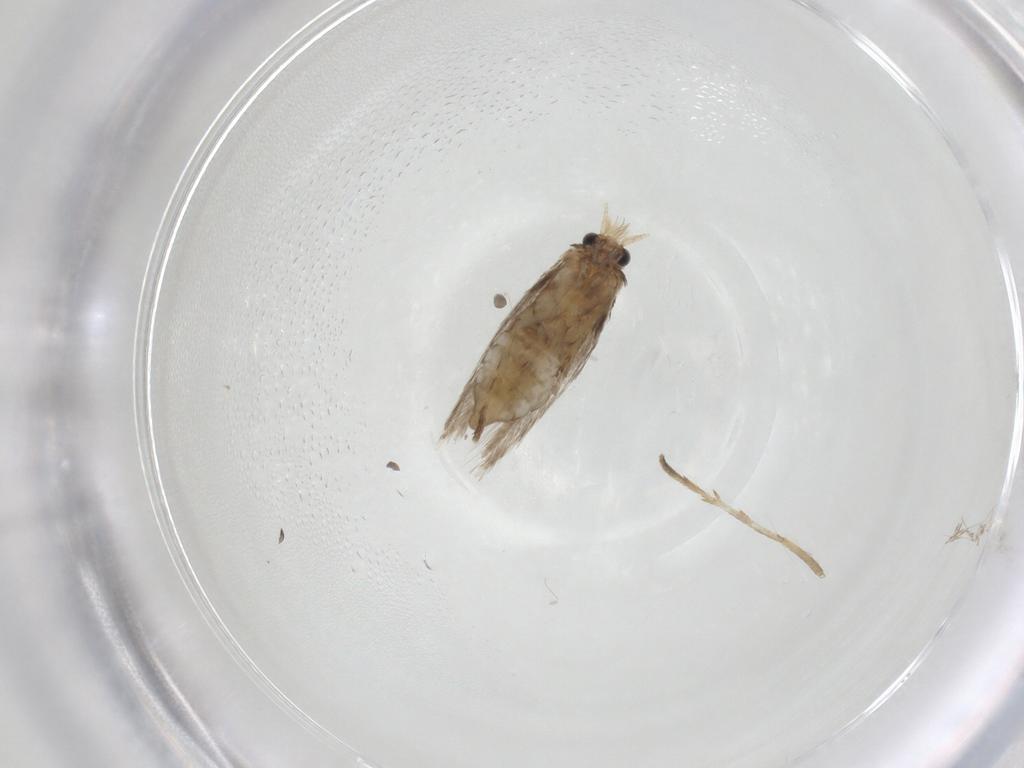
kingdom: Animalia
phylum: Arthropoda
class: Insecta
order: Lepidoptera
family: Nepticulidae
